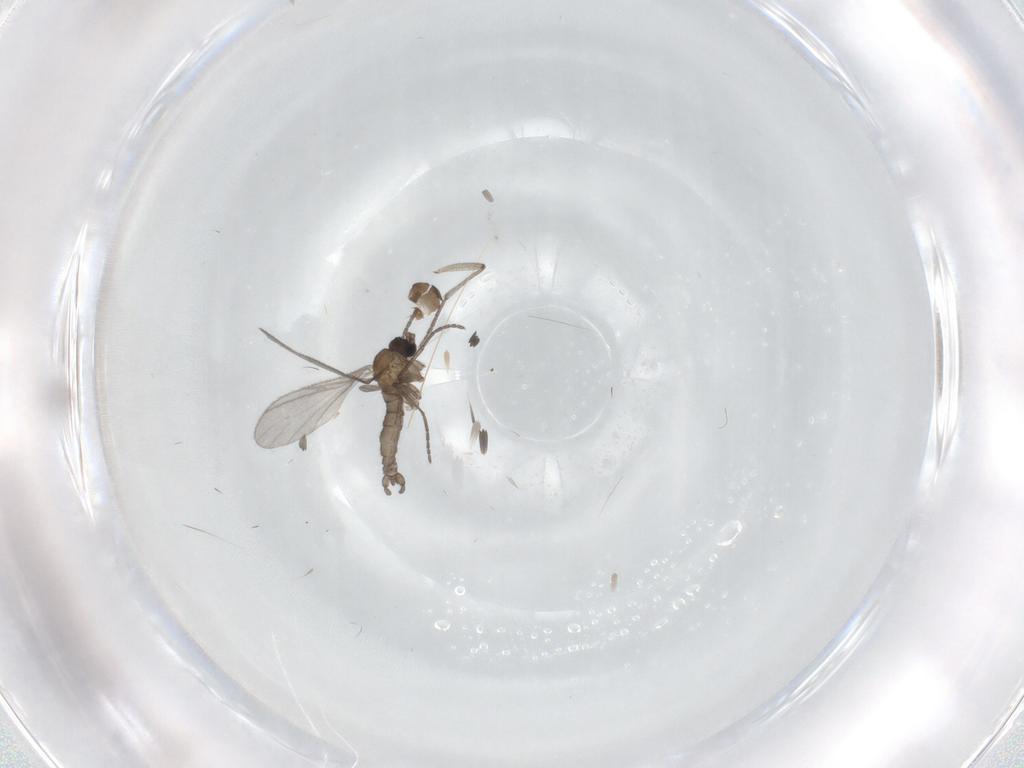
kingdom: Animalia
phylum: Arthropoda
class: Insecta
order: Diptera
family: Sciaridae
